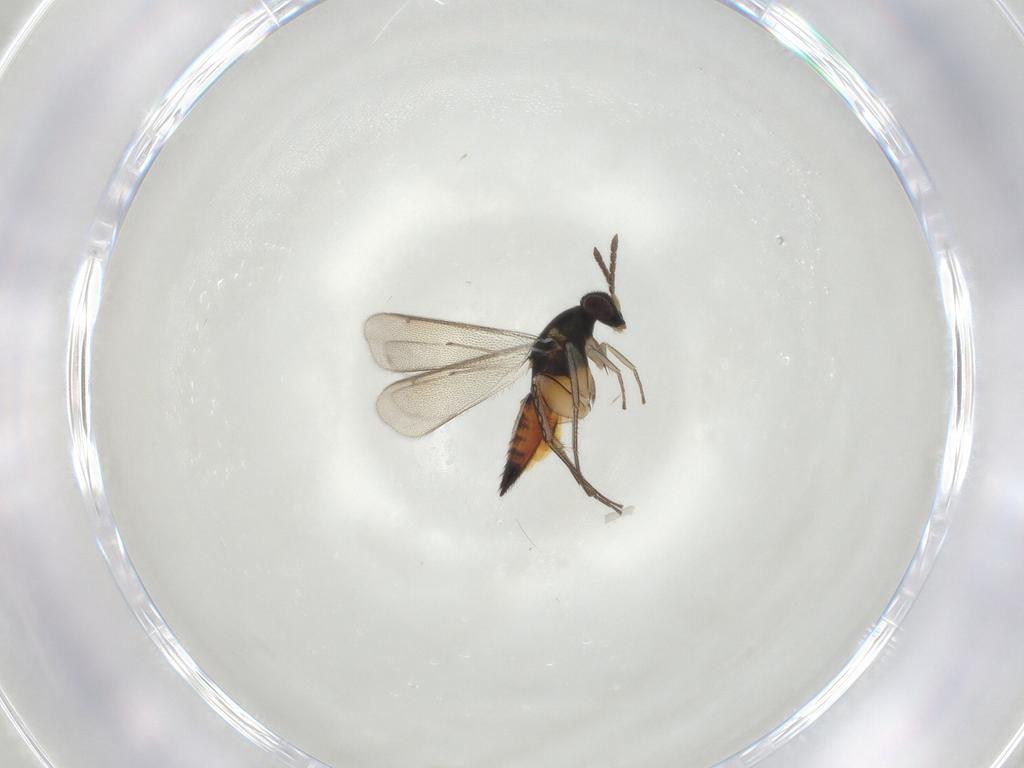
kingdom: Animalia
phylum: Arthropoda
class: Insecta
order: Hymenoptera
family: Eulophidae
